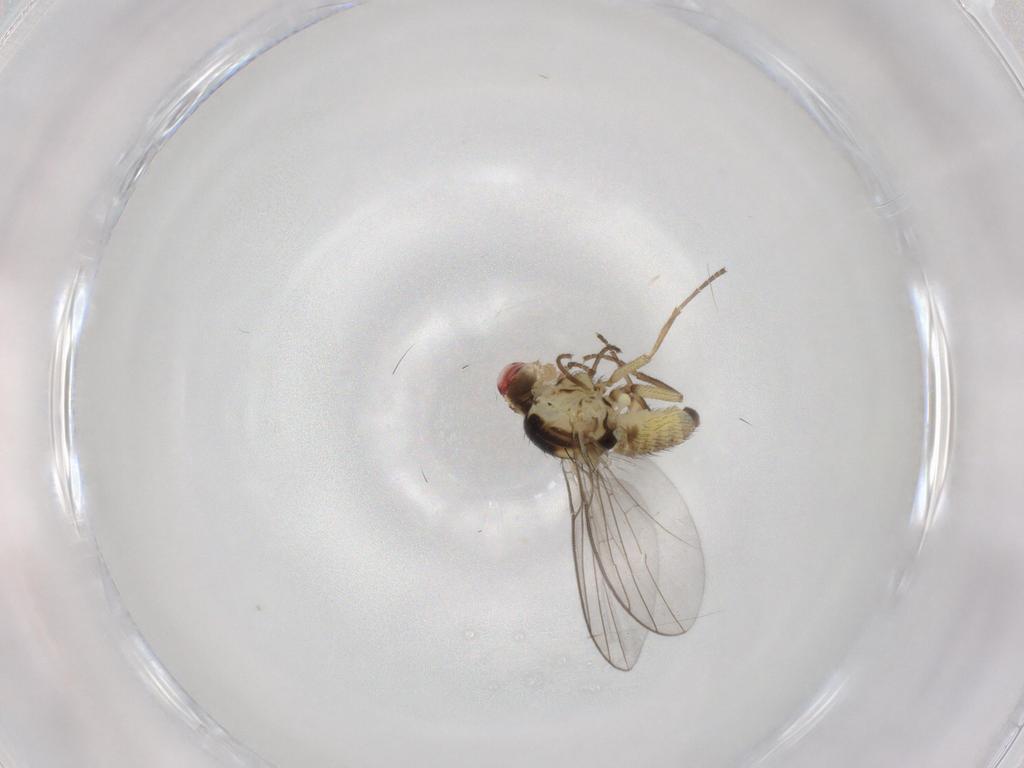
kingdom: Animalia
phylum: Arthropoda
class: Insecta
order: Diptera
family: Agromyzidae
